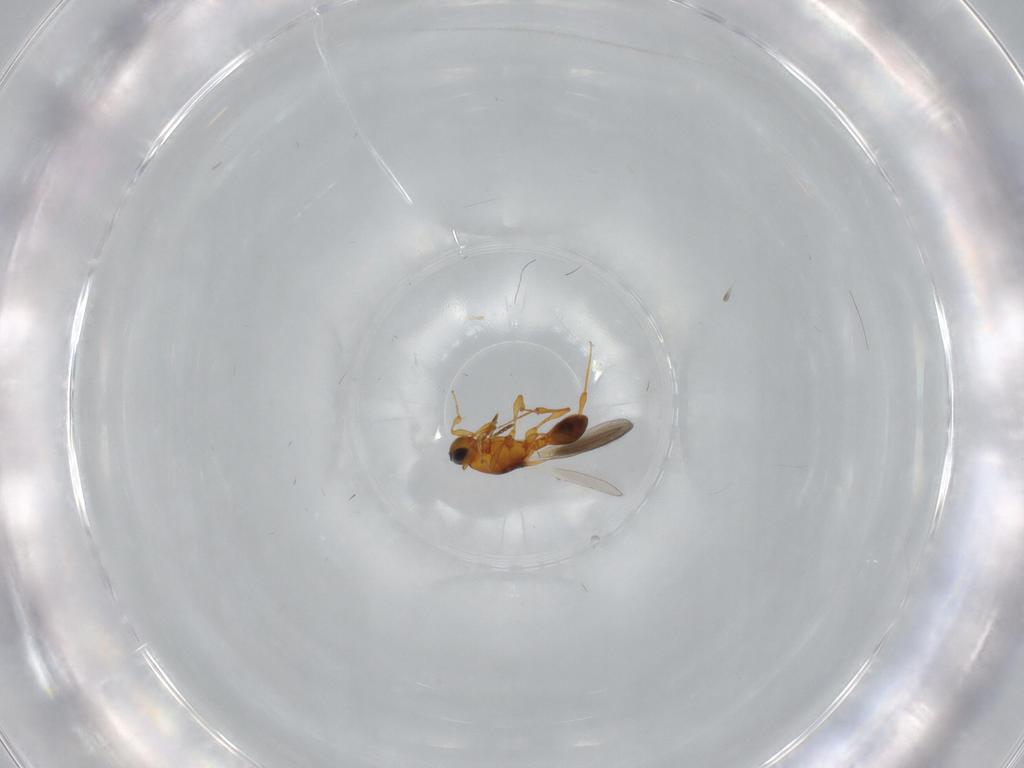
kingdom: Animalia
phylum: Arthropoda
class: Insecta
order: Hymenoptera
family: Platygastridae
